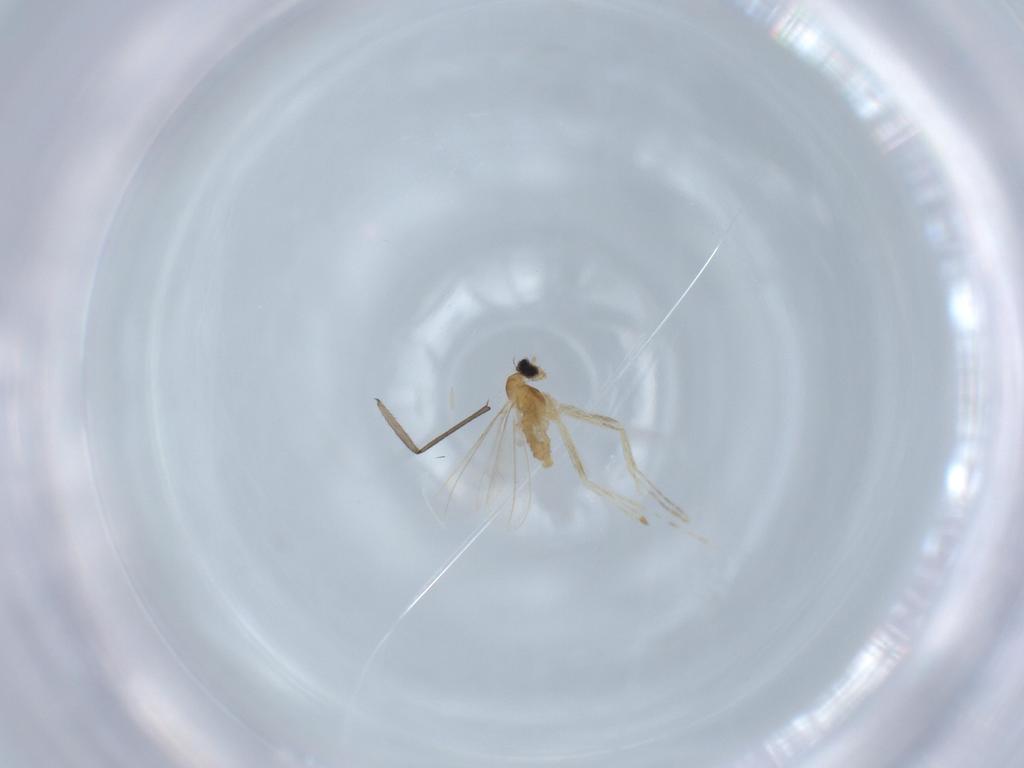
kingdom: Animalia
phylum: Arthropoda
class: Insecta
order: Diptera
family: Cecidomyiidae
